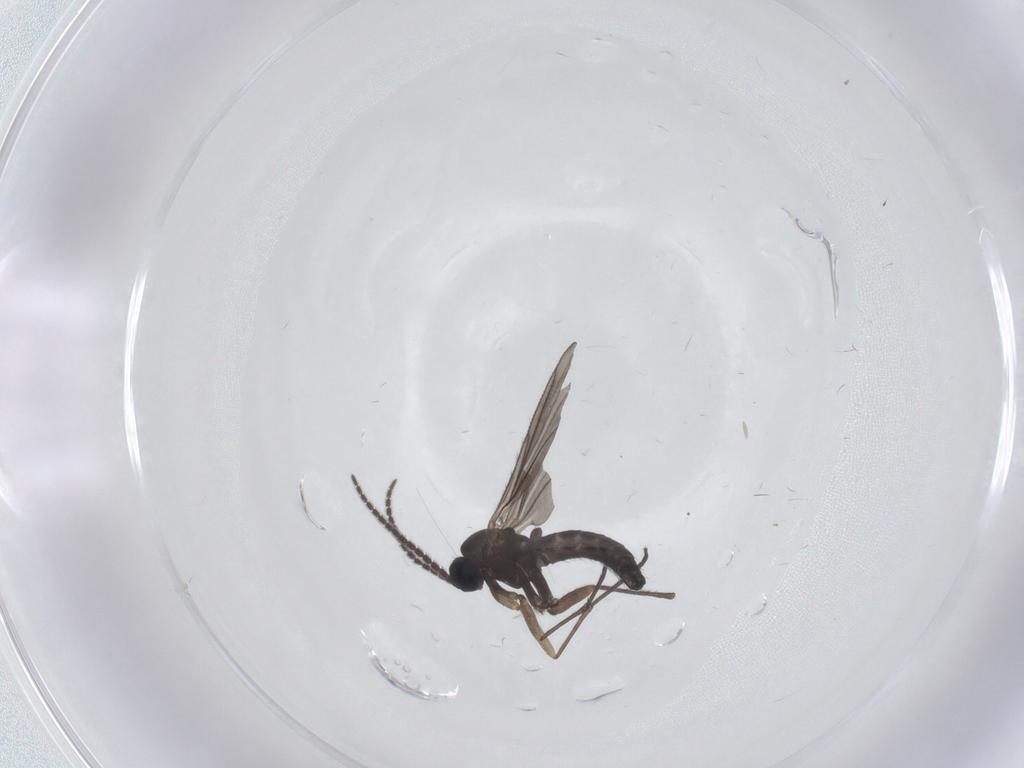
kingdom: Animalia
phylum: Arthropoda
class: Insecta
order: Diptera
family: Sciaridae
